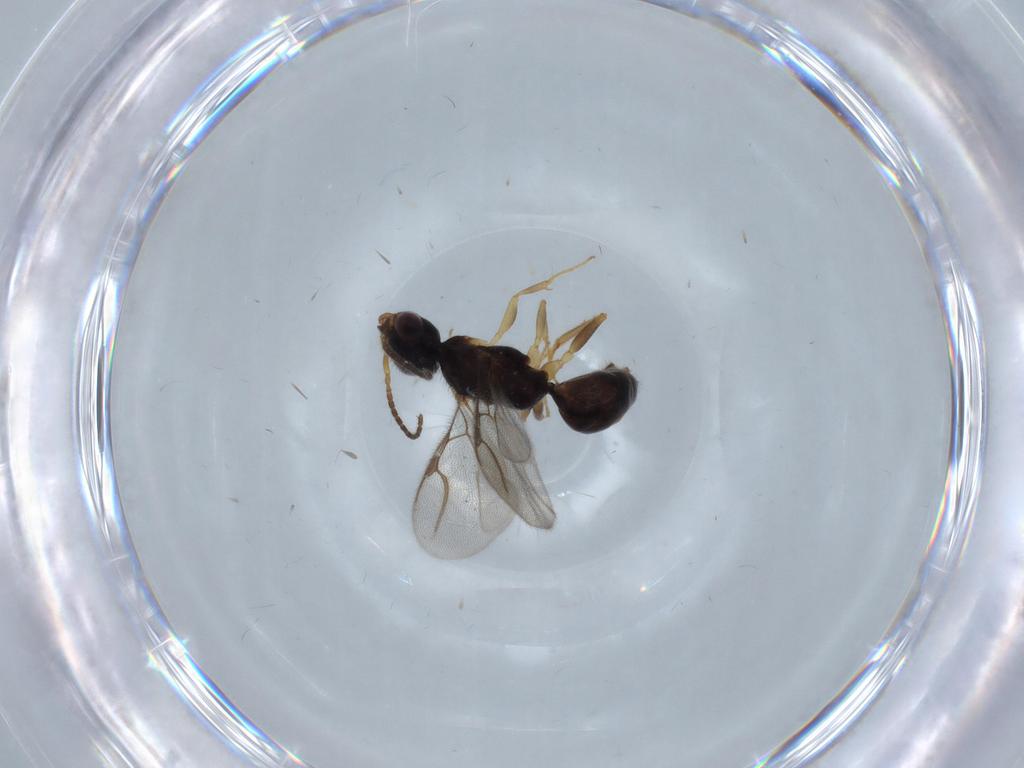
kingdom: Animalia
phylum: Arthropoda
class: Insecta
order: Hymenoptera
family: Bethylidae
